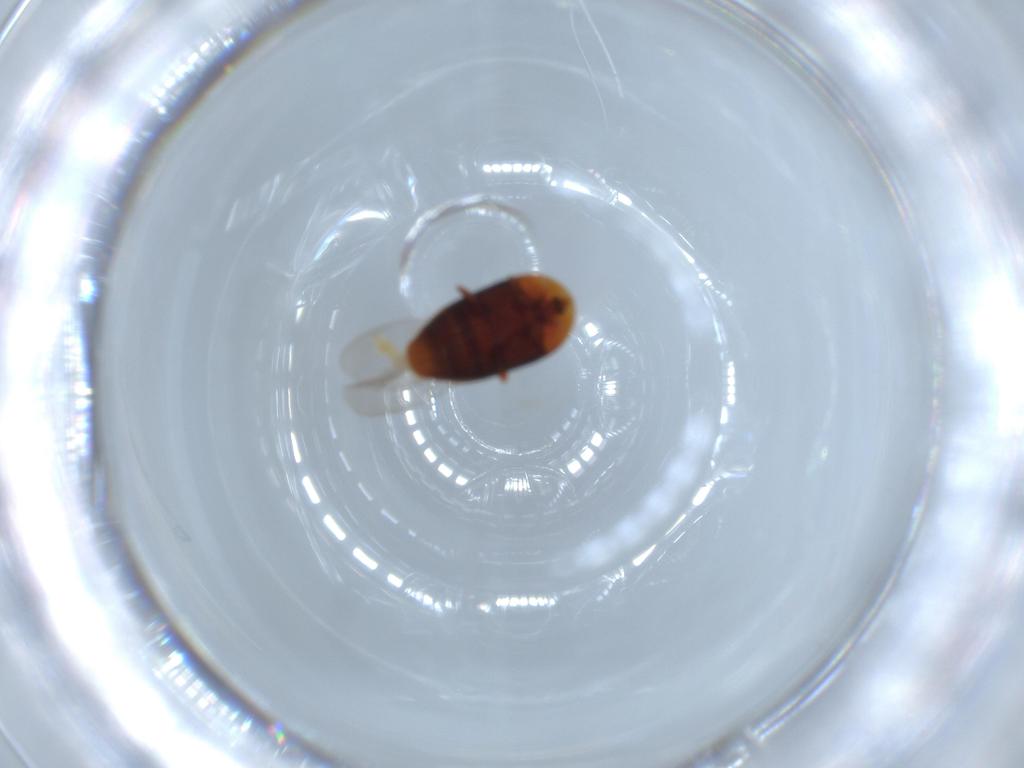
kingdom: Animalia
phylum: Arthropoda
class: Insecta
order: Coleoptera
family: Corylophidae
